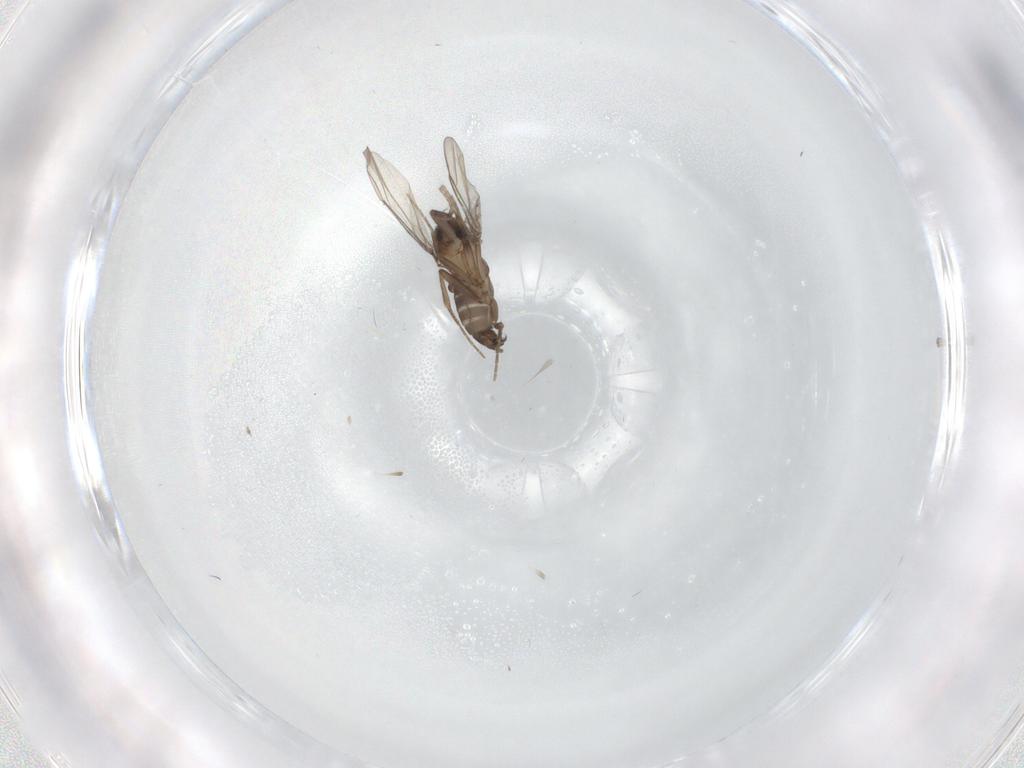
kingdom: Animalia
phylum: Arthropoda
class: Insecta
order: Diptera
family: Phoridae
